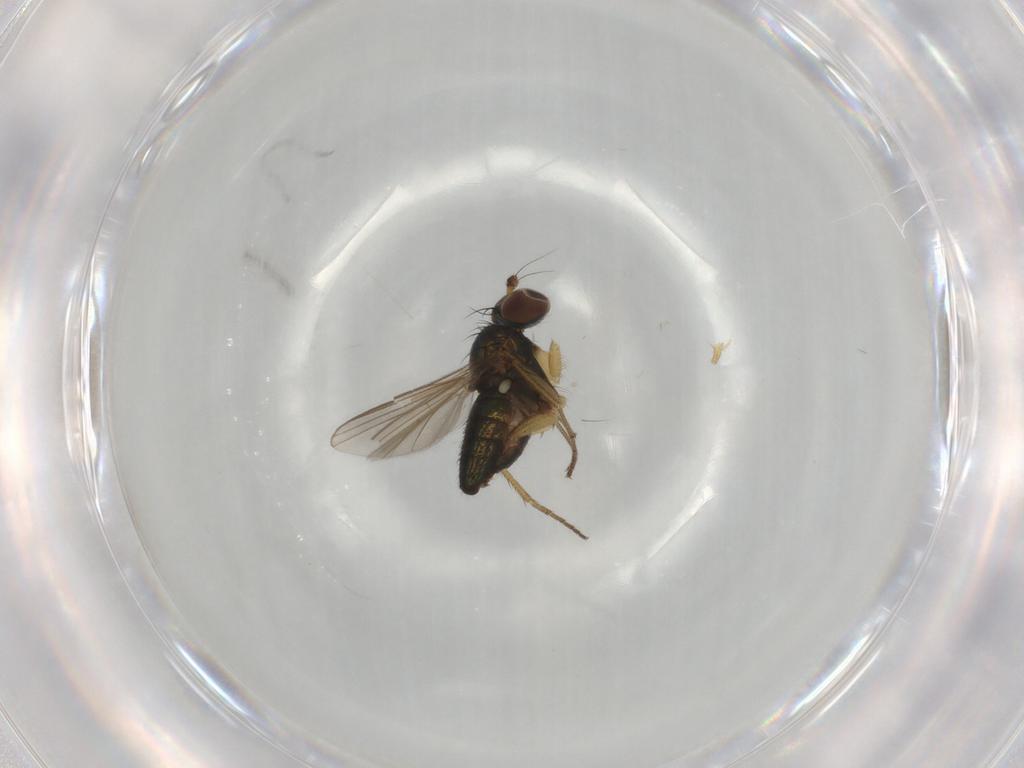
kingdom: Animalia
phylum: Arthropoda
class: Insecta
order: Diptera
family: Dolichopodidae
